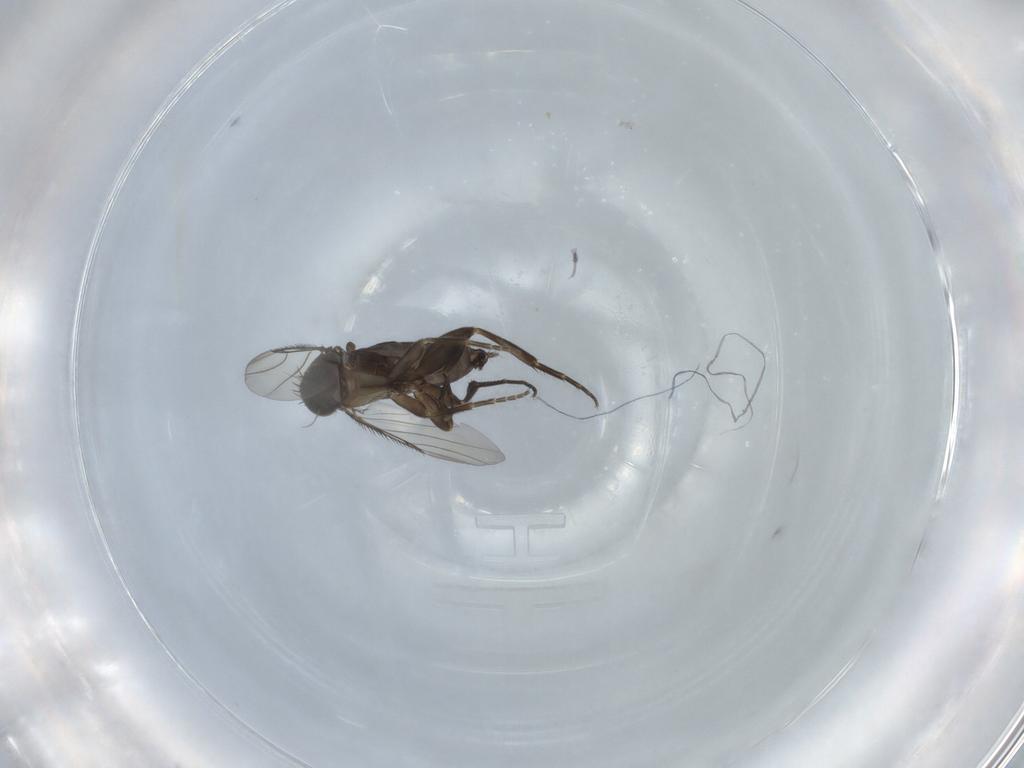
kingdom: Animalia
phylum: Arthropoda
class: Insecta
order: Diptera
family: Phoridae
